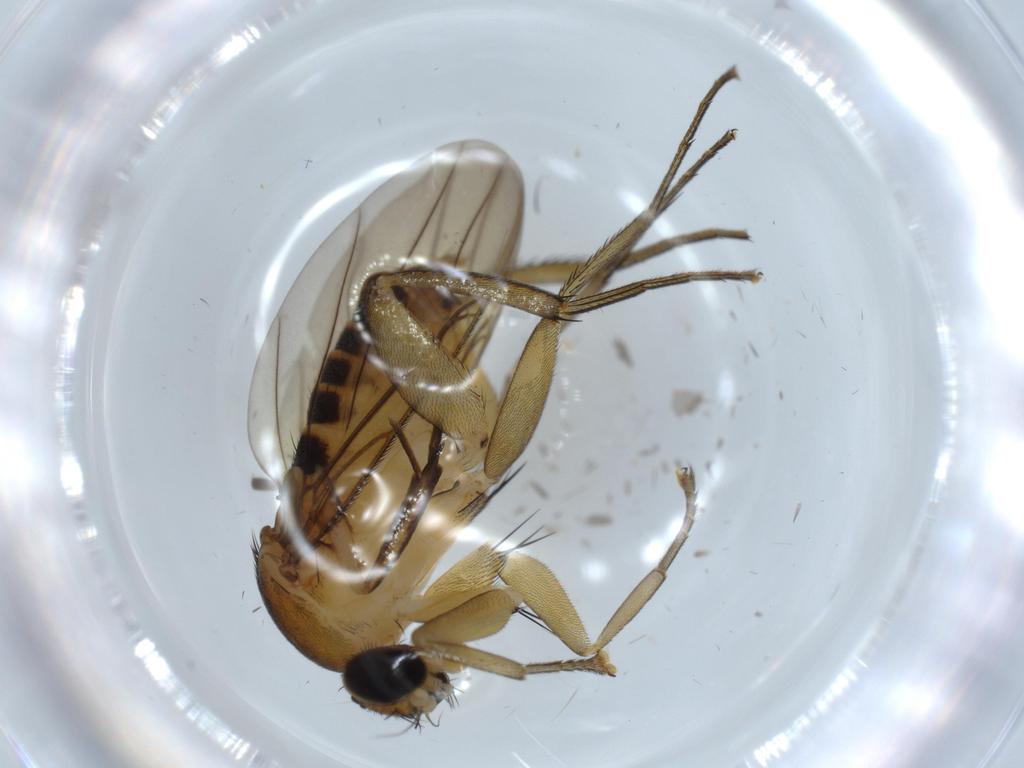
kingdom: Animalia
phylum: Arthropoda
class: Insecta
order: Diptera
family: Phoridae
